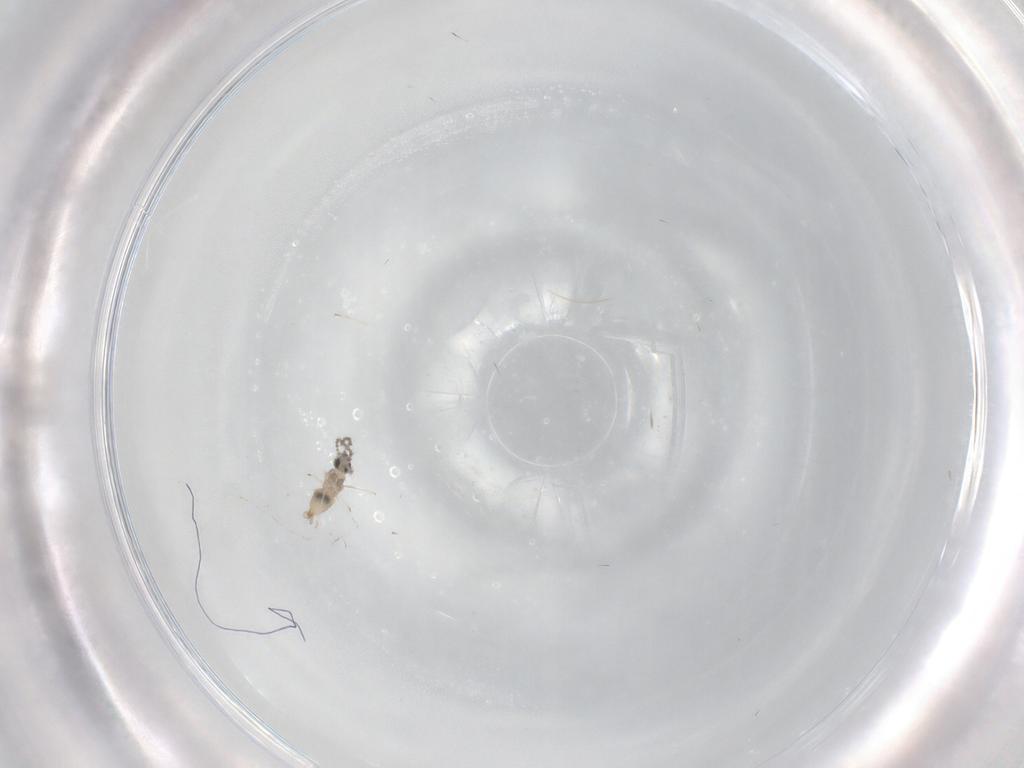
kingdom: Animalia
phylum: Arthropoda
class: Insecta
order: Diptera
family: Cecidomyiidae
